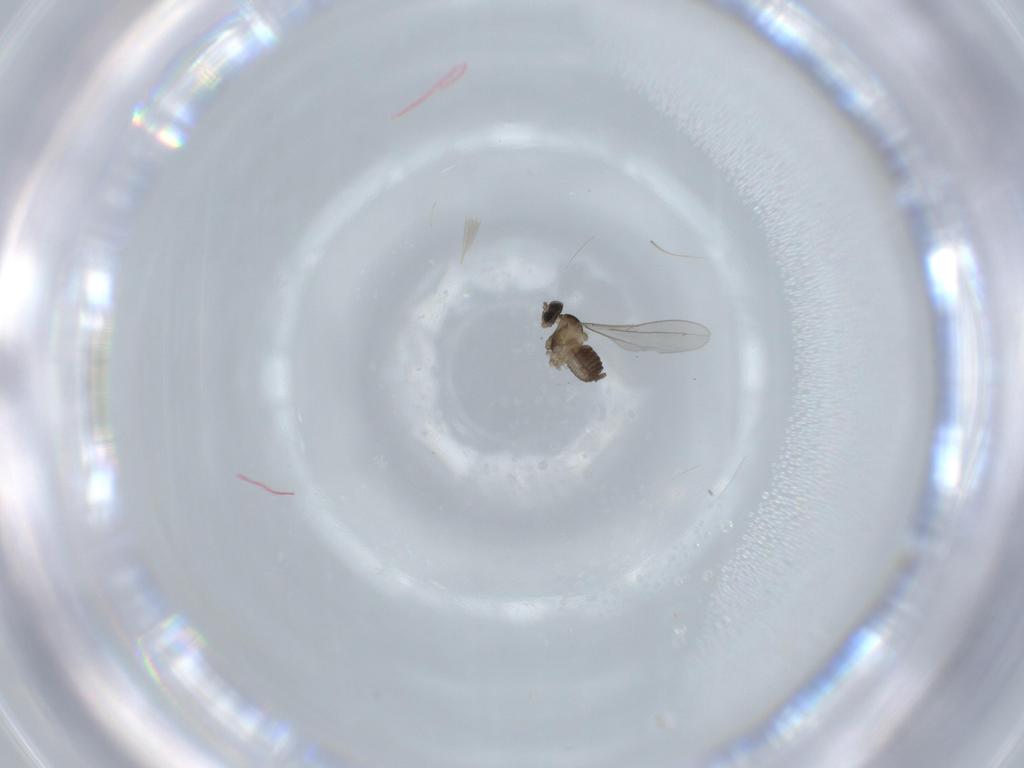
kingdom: Animalia
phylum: Arthropoda
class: Insecta
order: Diptera
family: Cecidomyiidae
